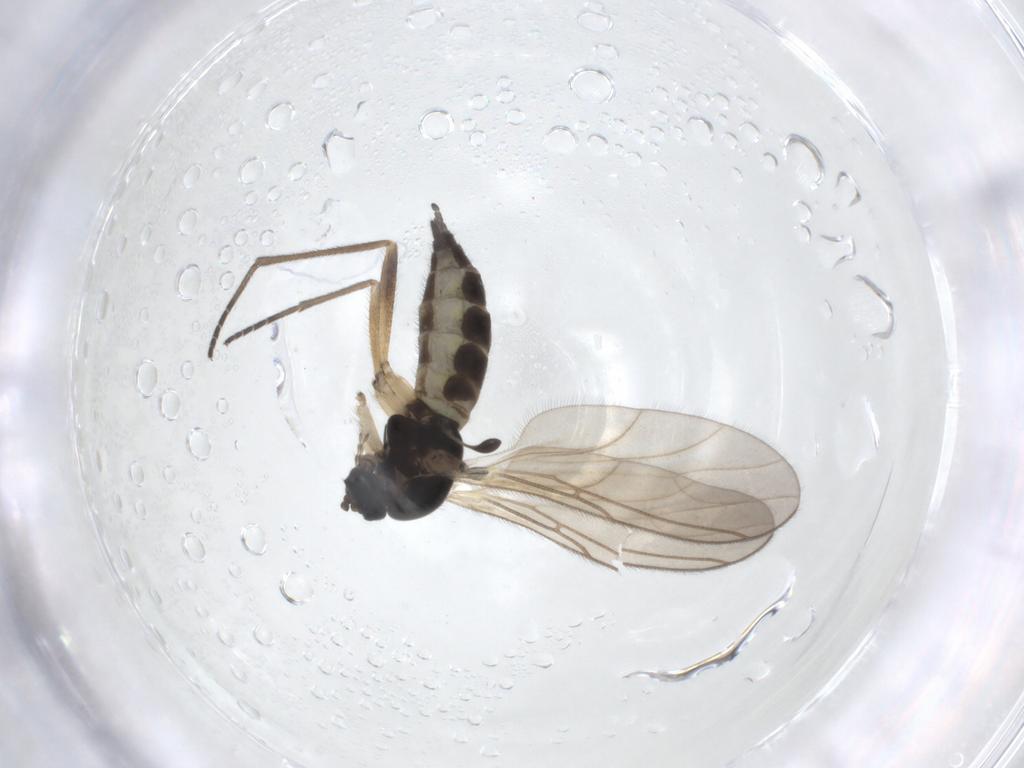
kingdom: Animalia
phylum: Arthropoda
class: Insecta
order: Diptera
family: Sciaridae
